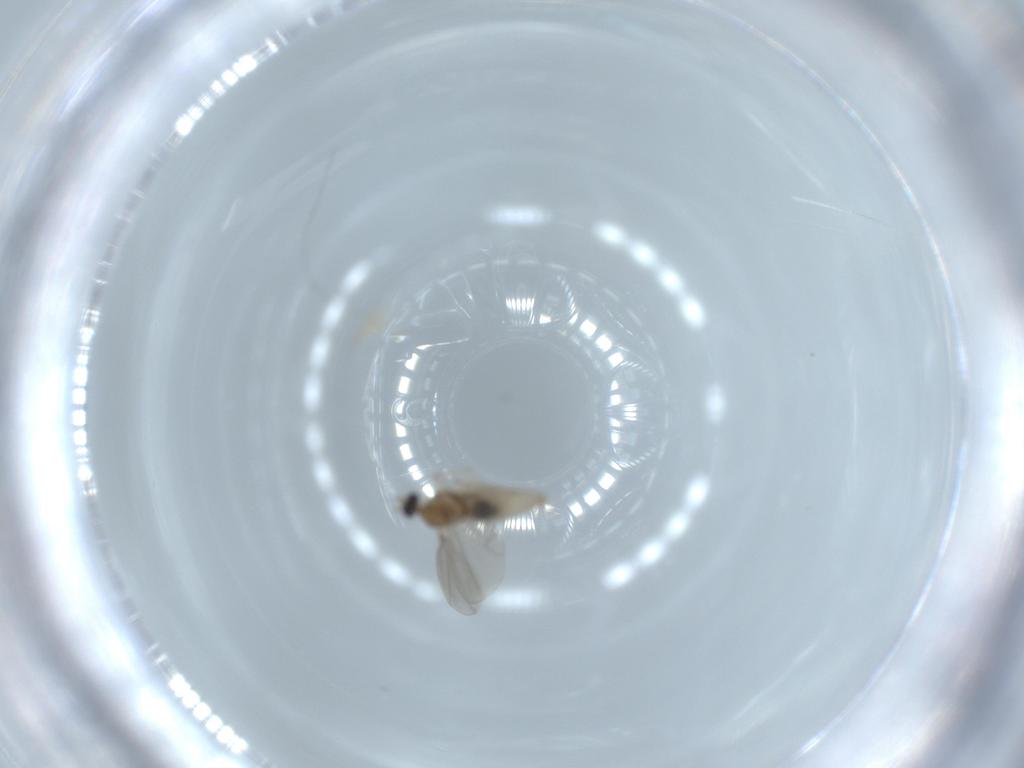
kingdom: Animalia
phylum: Arthropoda
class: Insecta
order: Diptera
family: Cecidomyiidae
